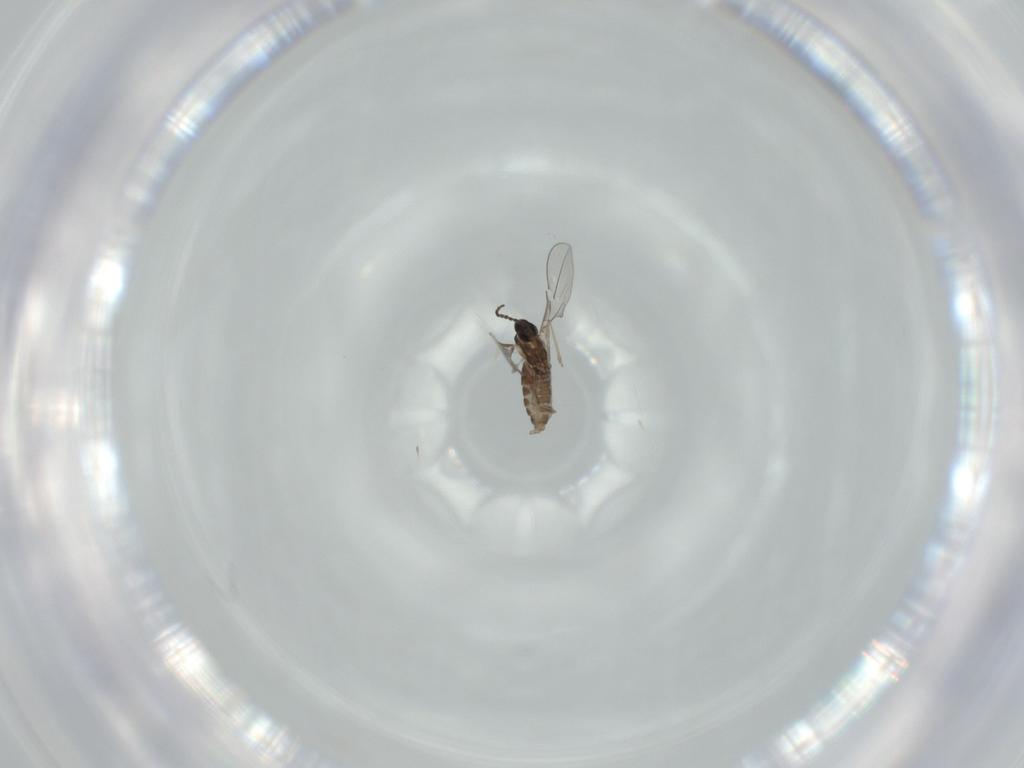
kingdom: Animalia
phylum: Arthropoda
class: Insecta
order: Diptera
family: Cecidomyiidae
